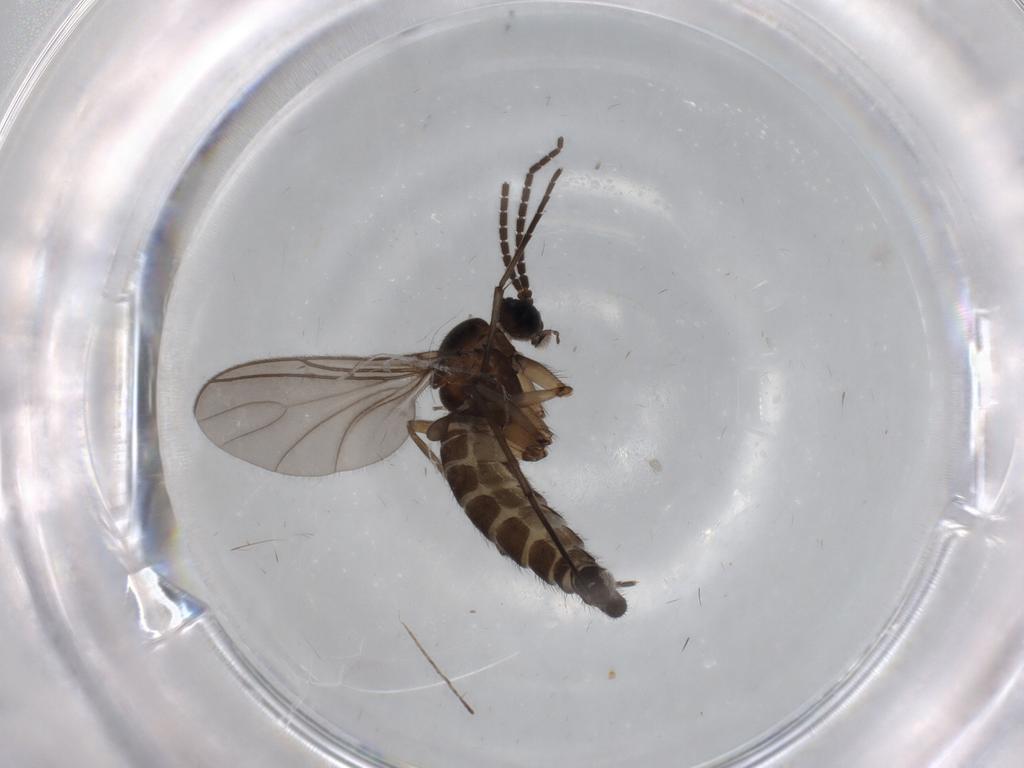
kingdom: Animalia
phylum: Arthropoda
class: Insecta
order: Diptera
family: Sciaridae
